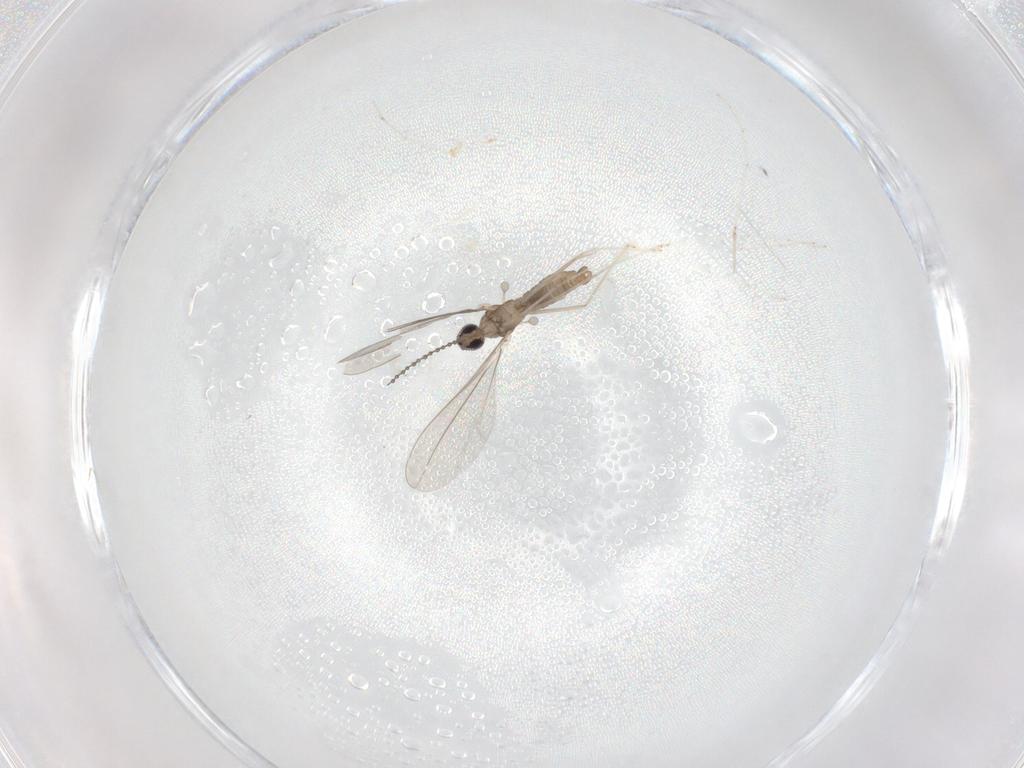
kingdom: Animalia
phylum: Arthropoda
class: Insecta
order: Diptera
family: Cecidomyiidae
